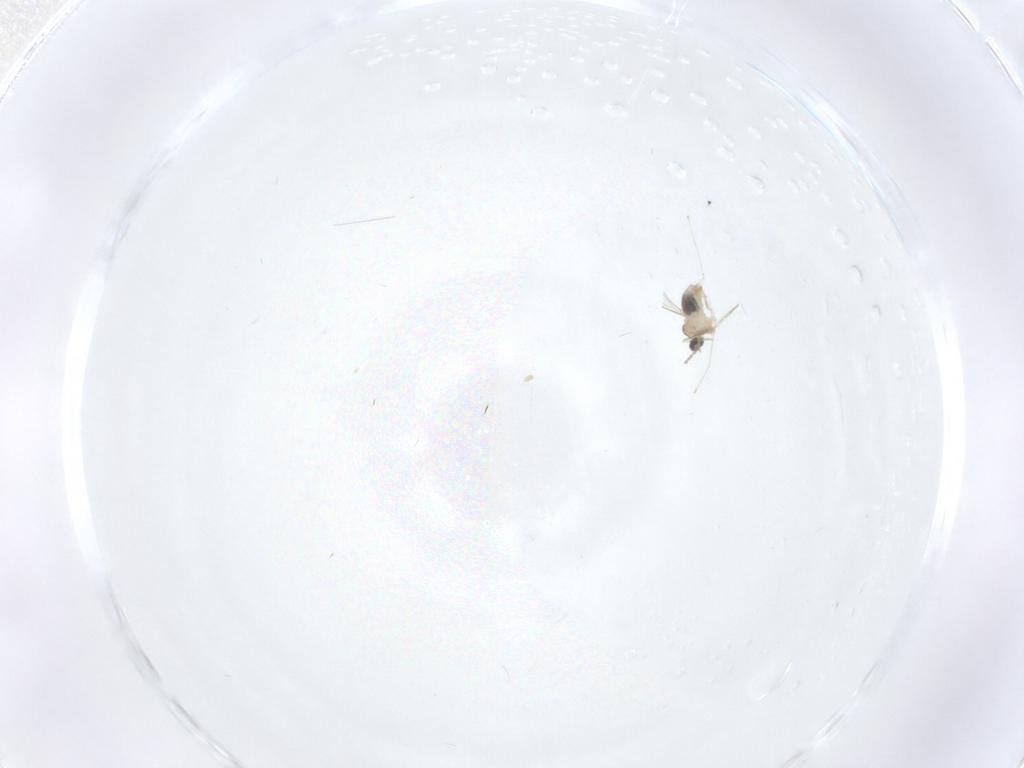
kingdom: Animalia
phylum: Arthropoda
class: Insecta
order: Diptera
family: Cecidomyiidae
